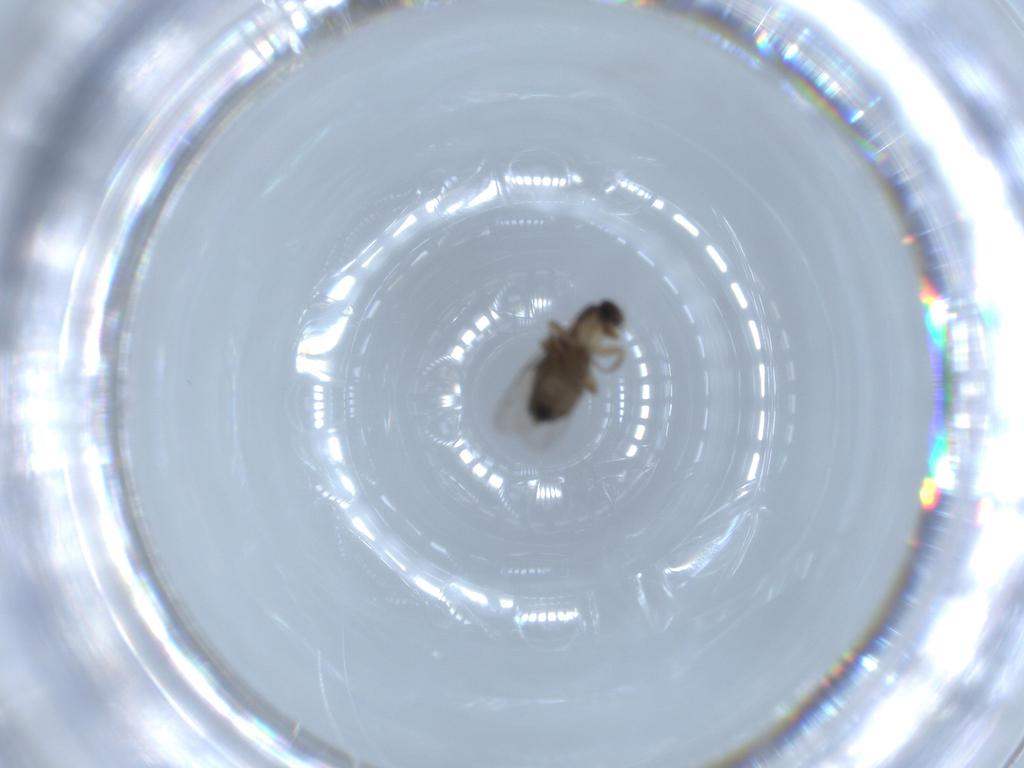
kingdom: Animalia
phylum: Arthropoda
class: Insecta
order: Diptera
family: Phoridae
